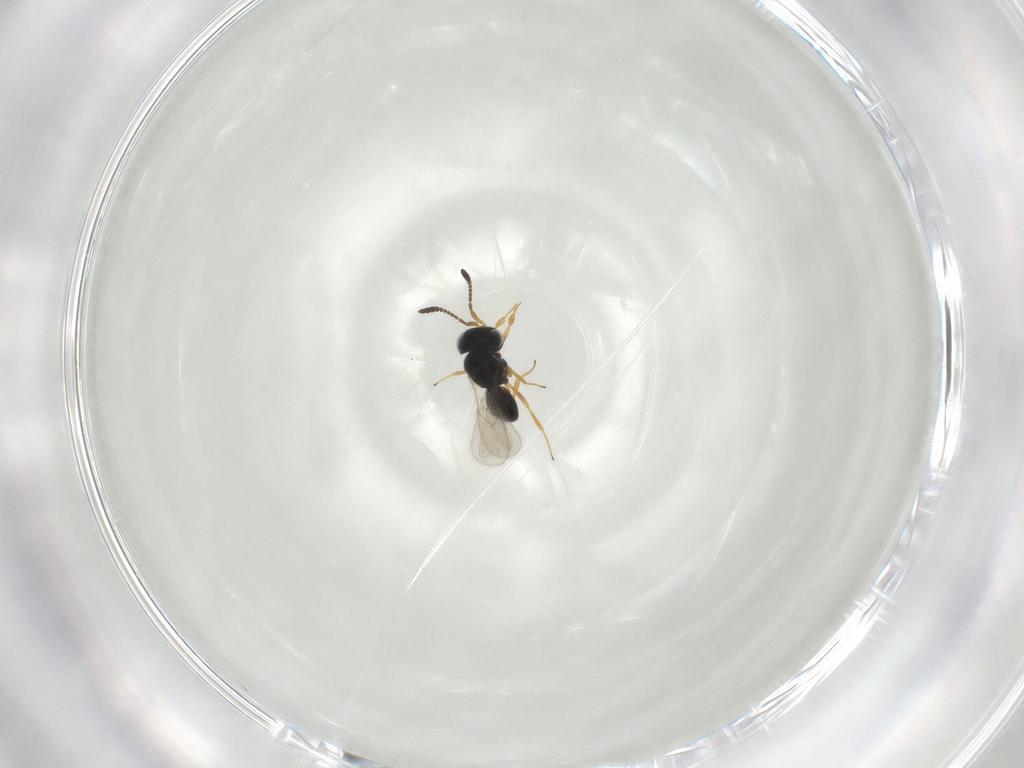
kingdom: Animalia
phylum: Arthropoda
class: Insecta
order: Hymenoptera
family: Scelionidae
